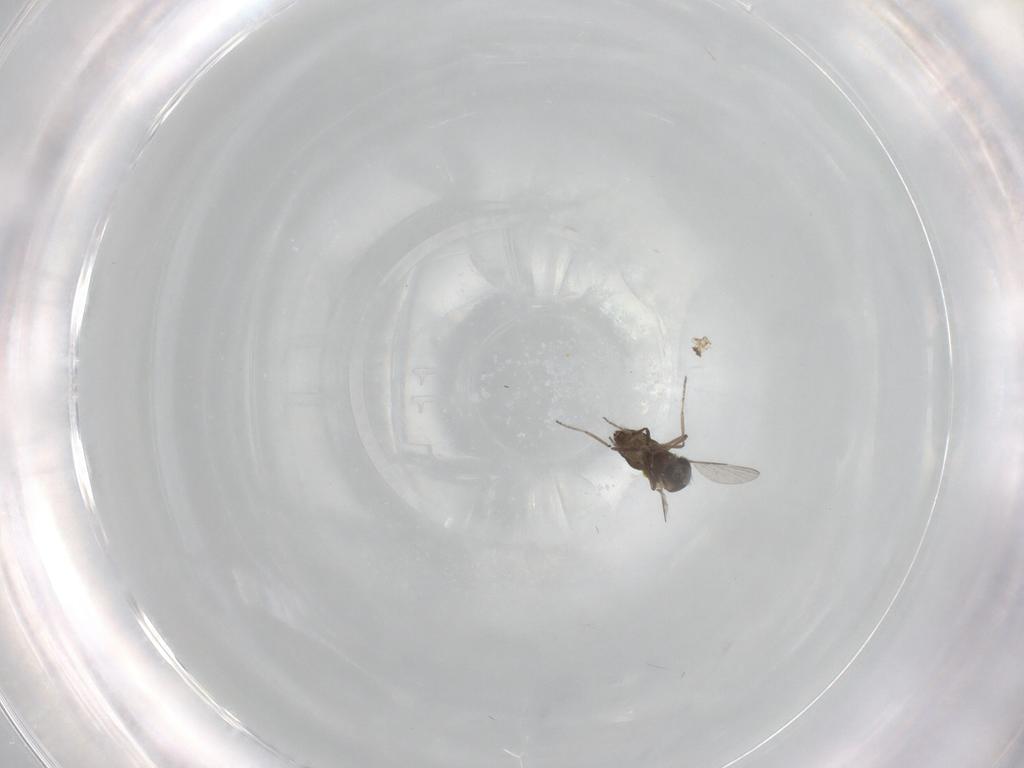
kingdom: Animalia
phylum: Arthropoda
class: Insecta
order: Diptera
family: Ceratopogonidae
